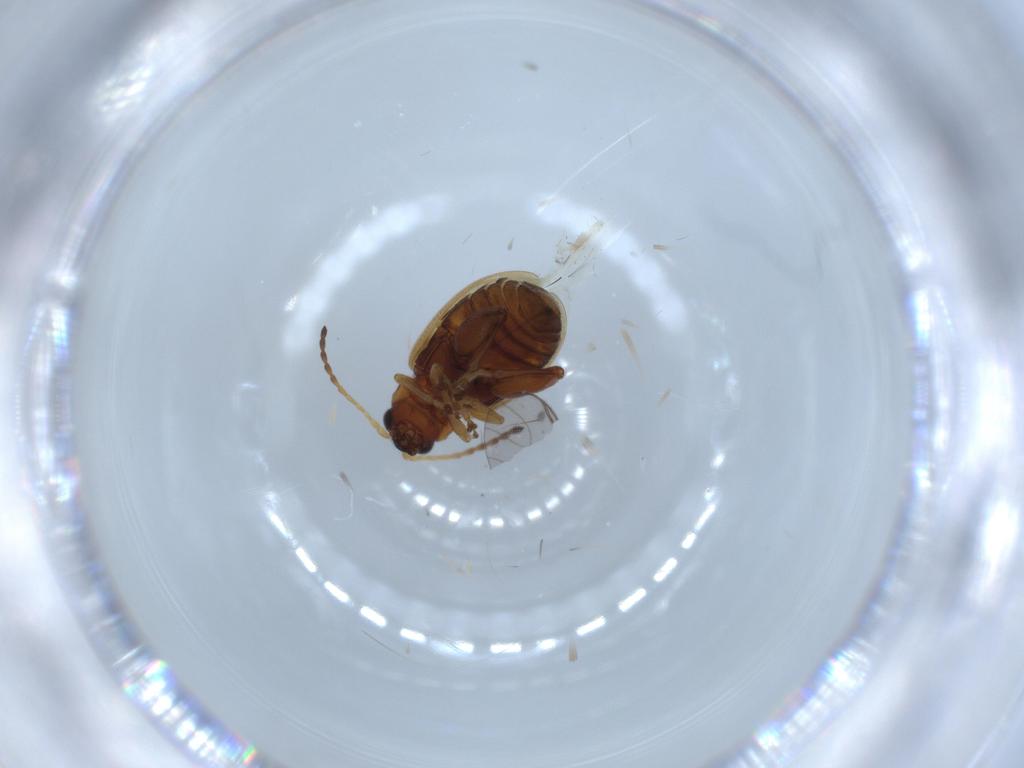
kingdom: Animalia
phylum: Arthropoda
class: Insecta
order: Coleoptera
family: Chrysomelidae
